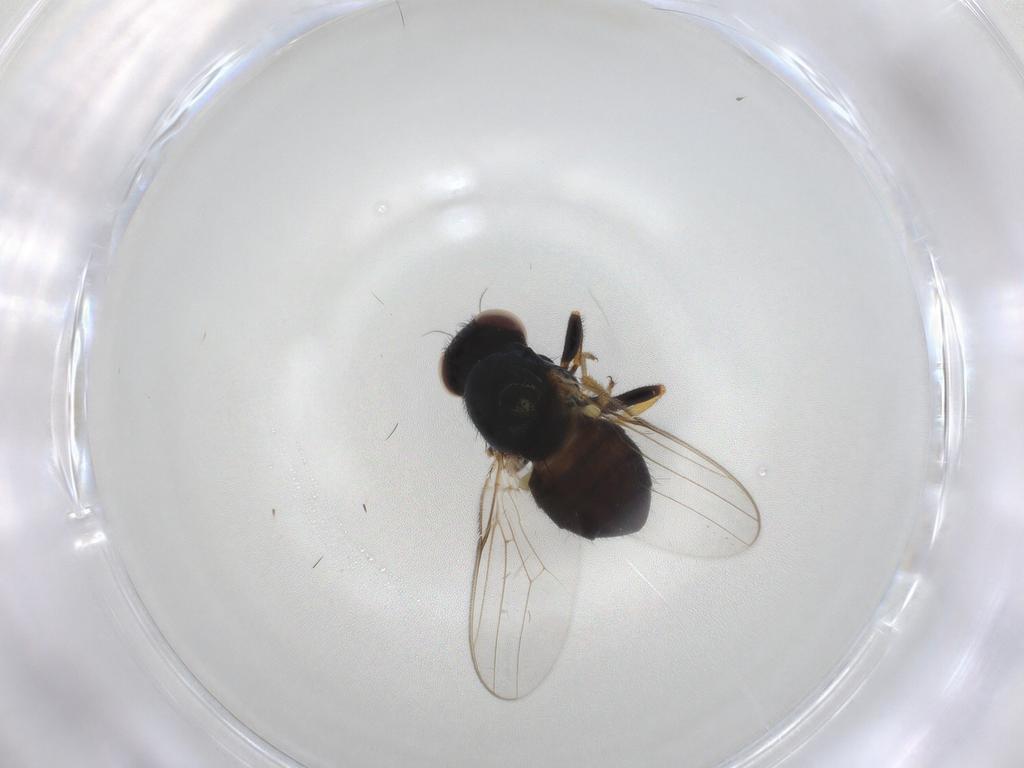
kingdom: Animalia
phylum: Arthropoda
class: Insecta
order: Diptera
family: Chloropidae
